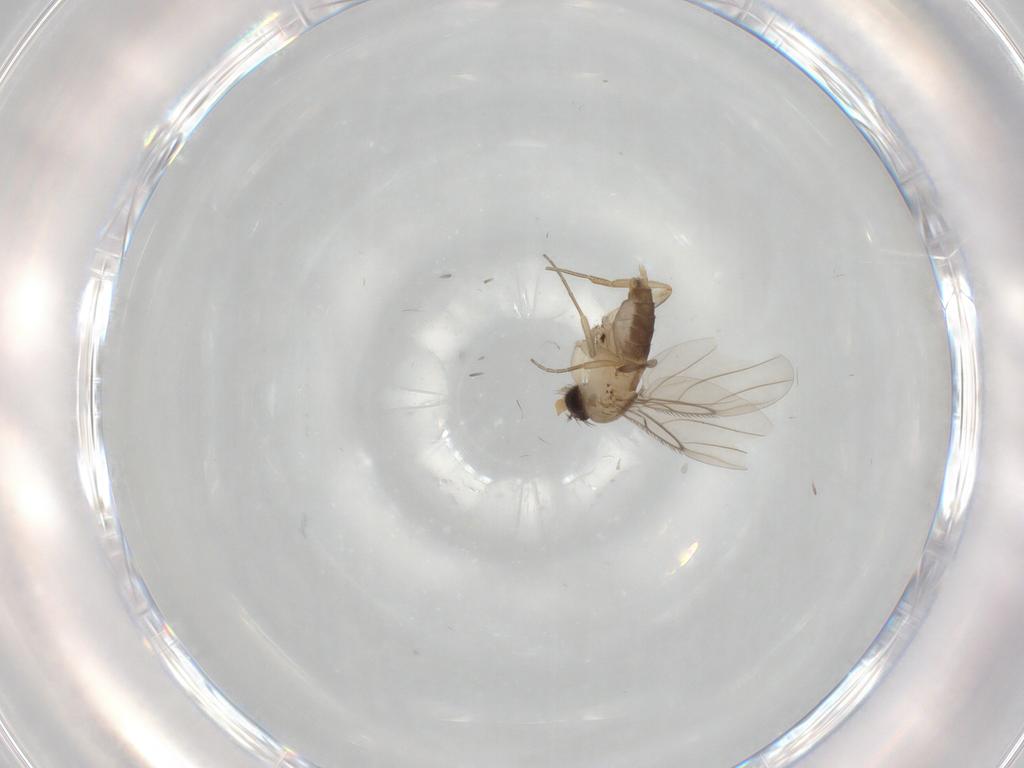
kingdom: Animalia
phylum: Arthropoda
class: Insecta
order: Diptera
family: Phoridae
